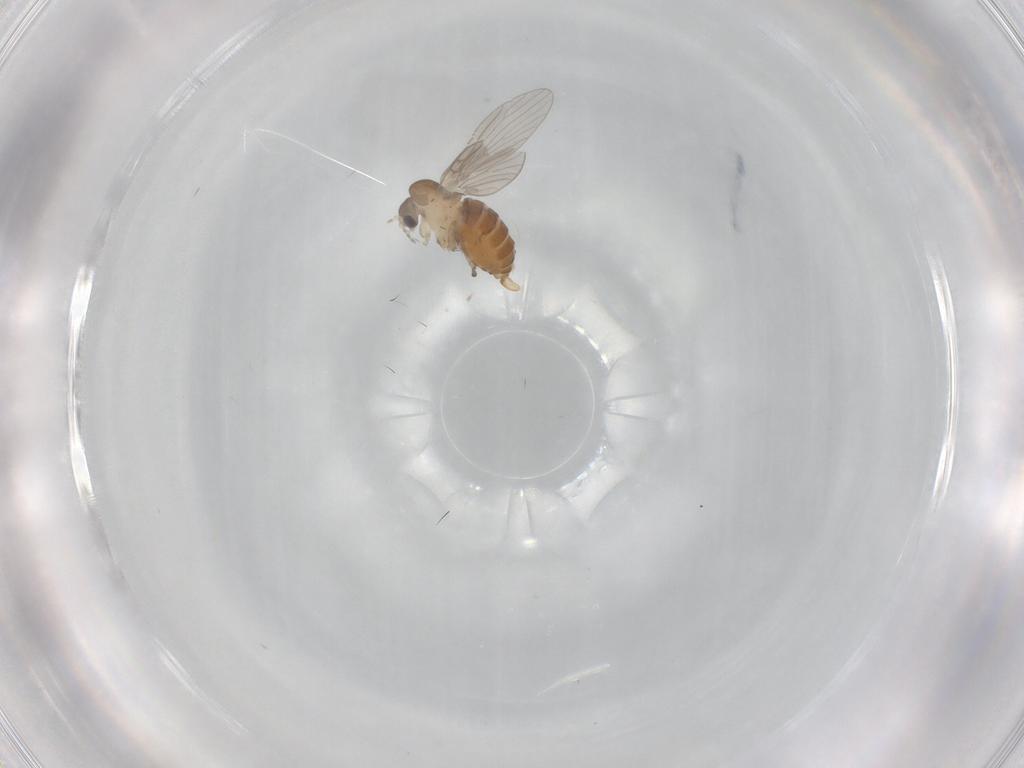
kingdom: Animalia
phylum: Arthropoda
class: Insecta
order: Diptera
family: Psychodidae
